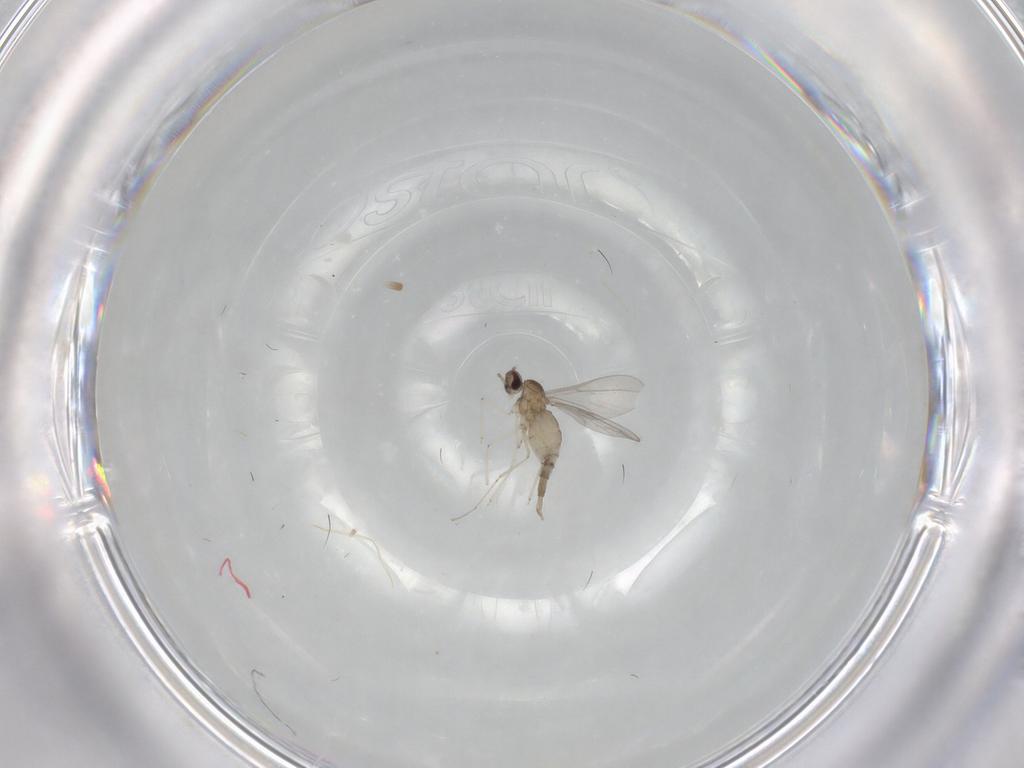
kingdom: Animalia
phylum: Arthropoda
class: Insecta
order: Diptera
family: Cecidomyiidae
